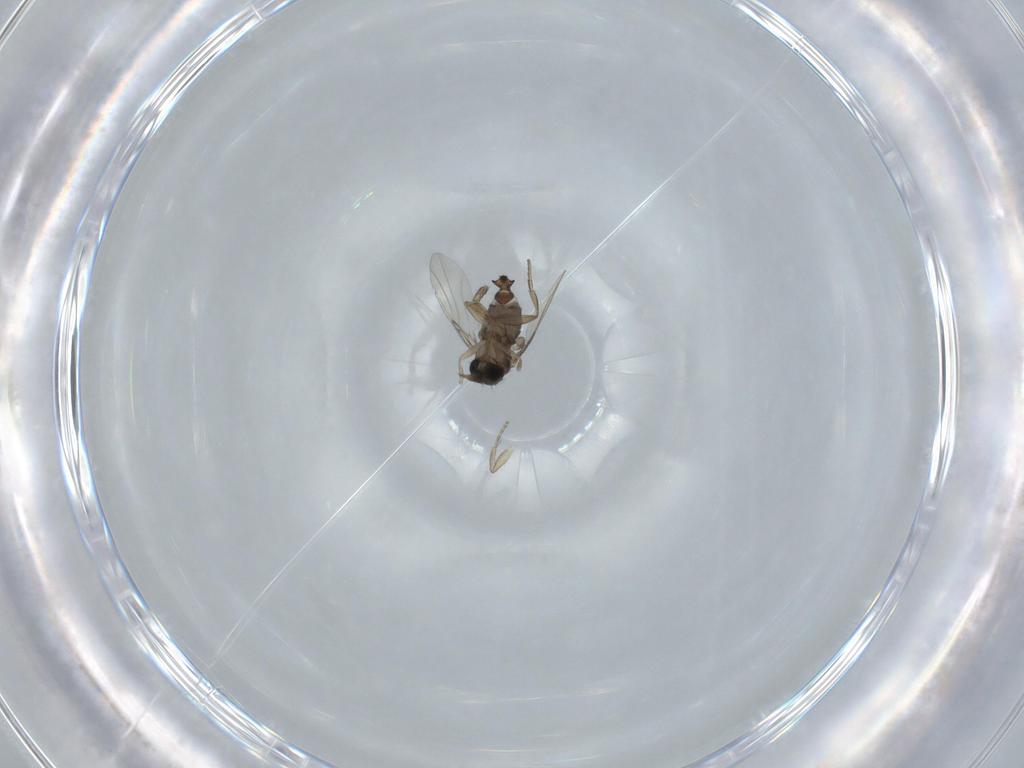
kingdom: Animalia
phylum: Arthropoda
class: Insecta
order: Diptera
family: Phoridae
